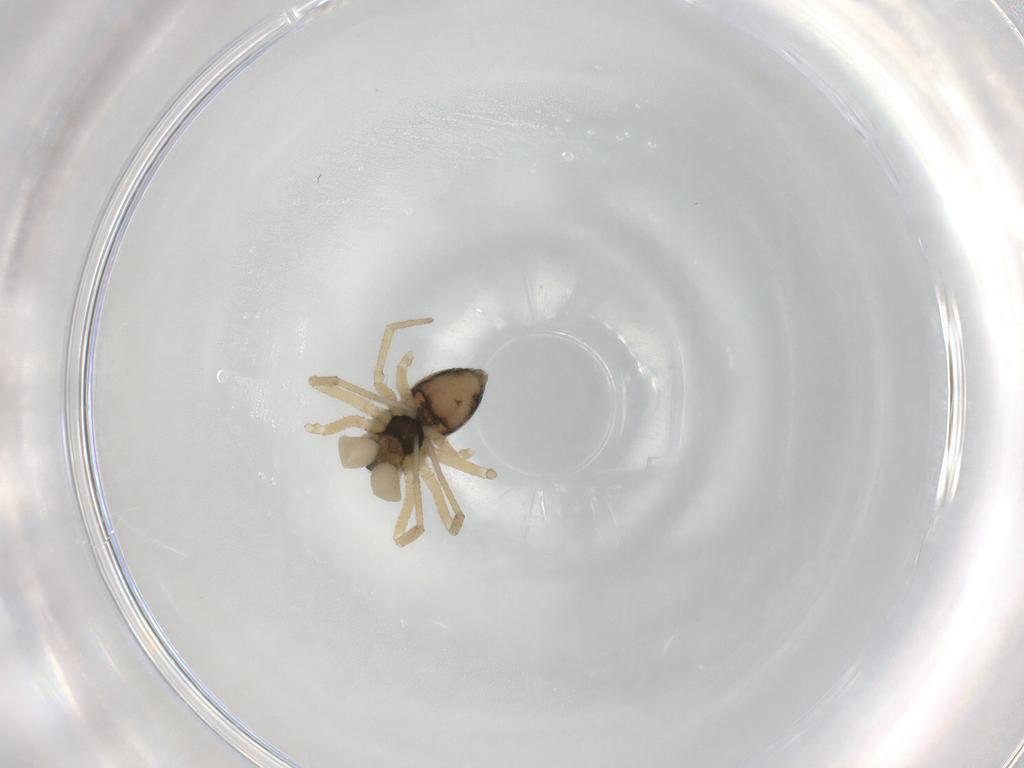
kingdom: Animalia
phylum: Arthropoda
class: Arachnida
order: Araneae
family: Linyphiidae
